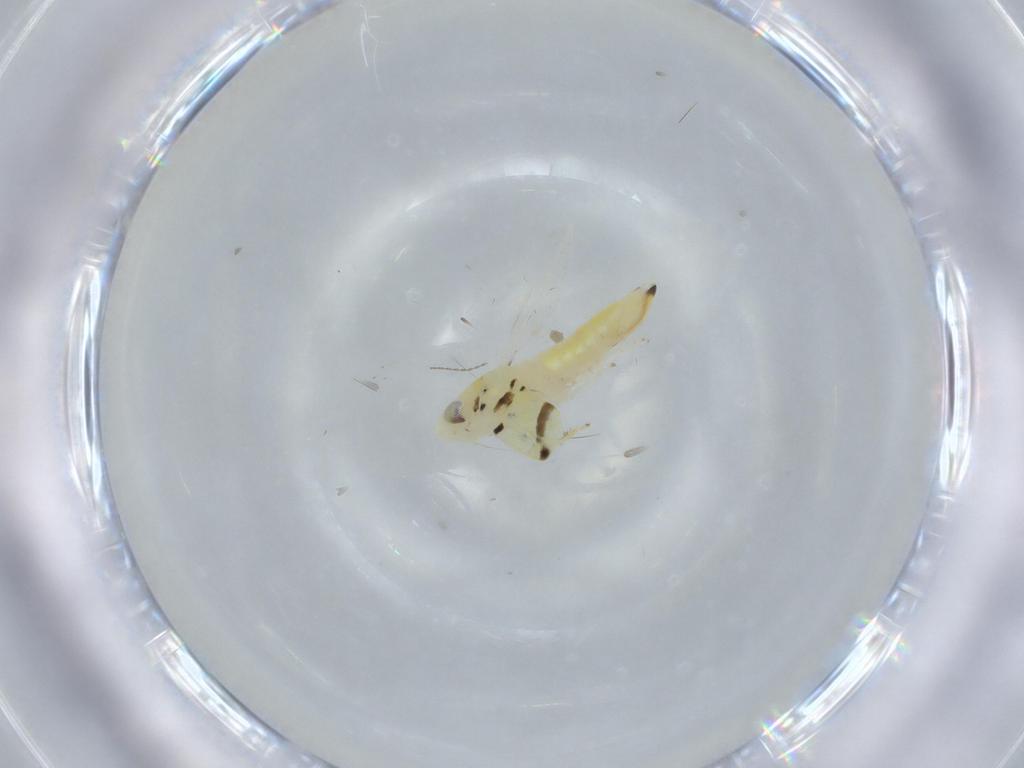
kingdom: Animalia
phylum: Arthropoda
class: Insecta
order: Hemiptera
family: Cicadellidae
